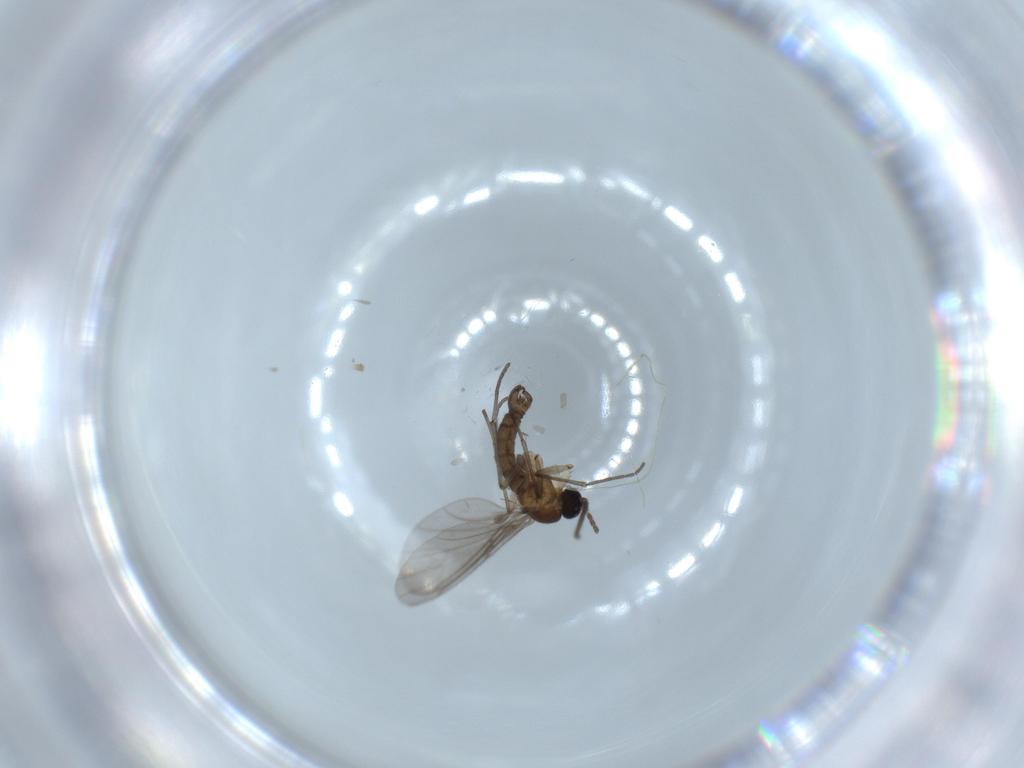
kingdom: Animalia
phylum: Arthropoda
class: Insecta
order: Diptera
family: Sciaridae
